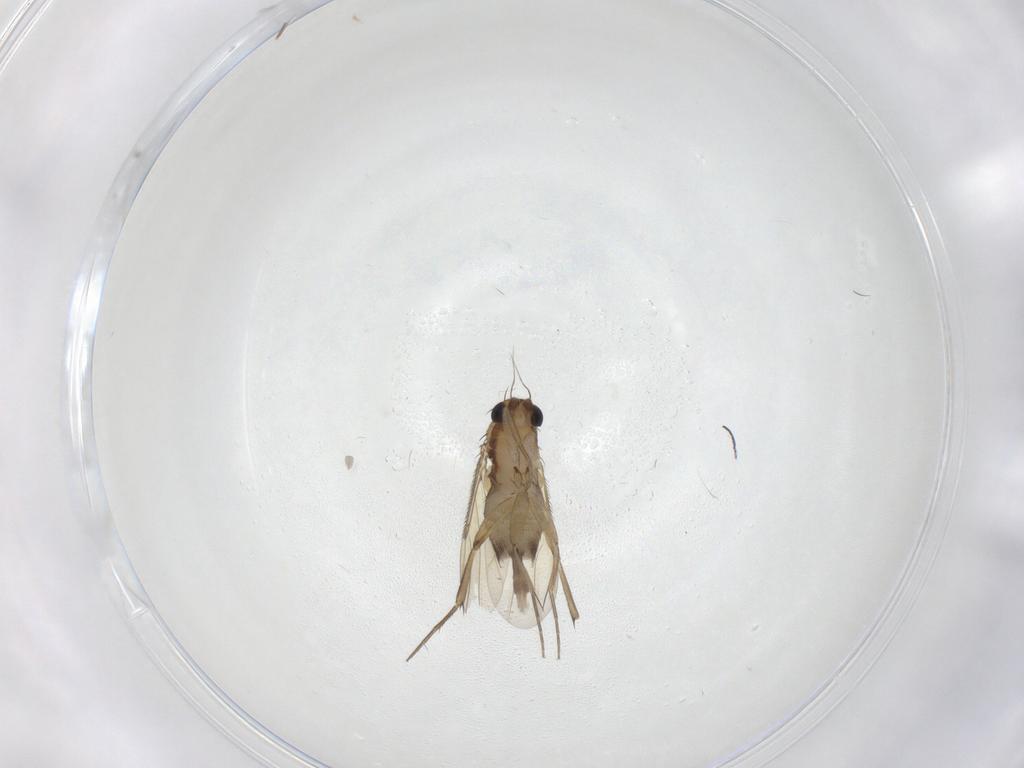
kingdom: Animalia
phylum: Arthropoda
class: Insecta
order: Diptera
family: Phoridae
